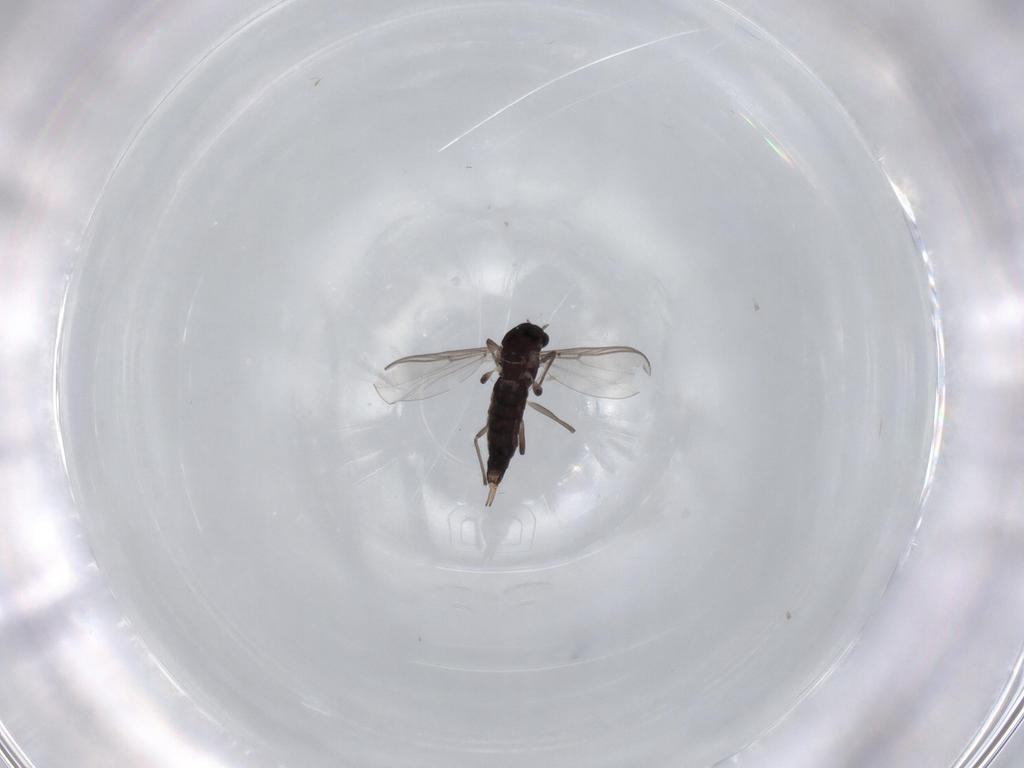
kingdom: Animalia
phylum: Arthropoda
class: Insecta
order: Diptera
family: Chironomidae
